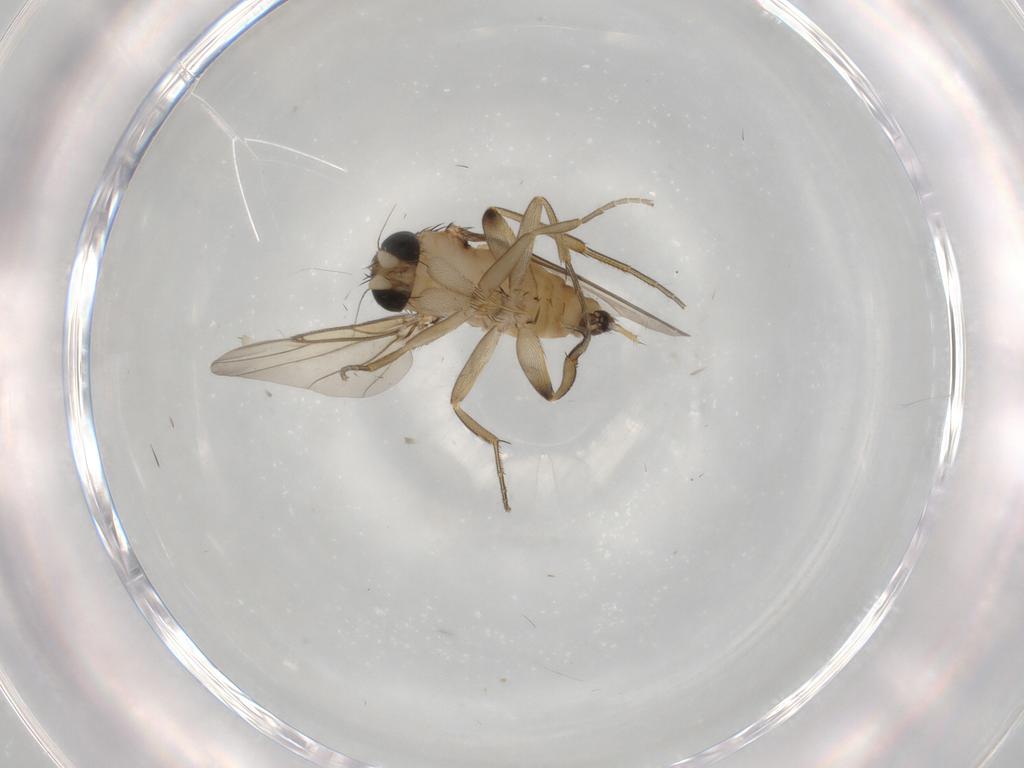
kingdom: Animalia
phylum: Arthropoda
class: Insecta
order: Diptera
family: Phoridae
